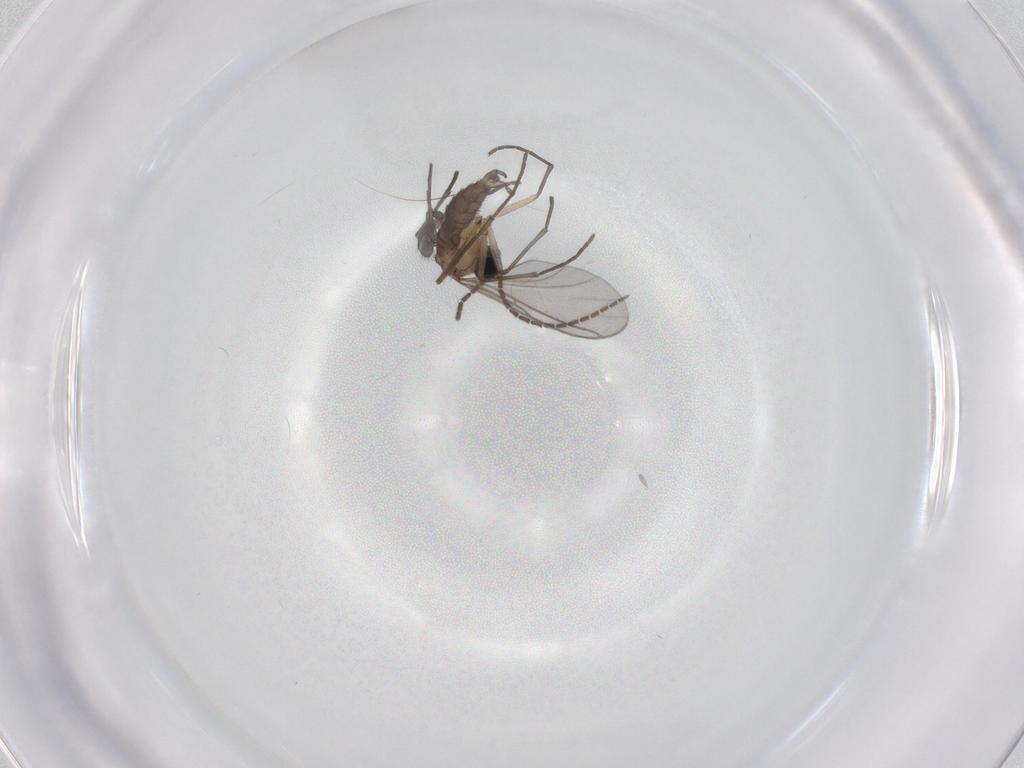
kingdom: Animalia
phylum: Arthropoda
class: Insecta
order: Diptera
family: Sciaridae
